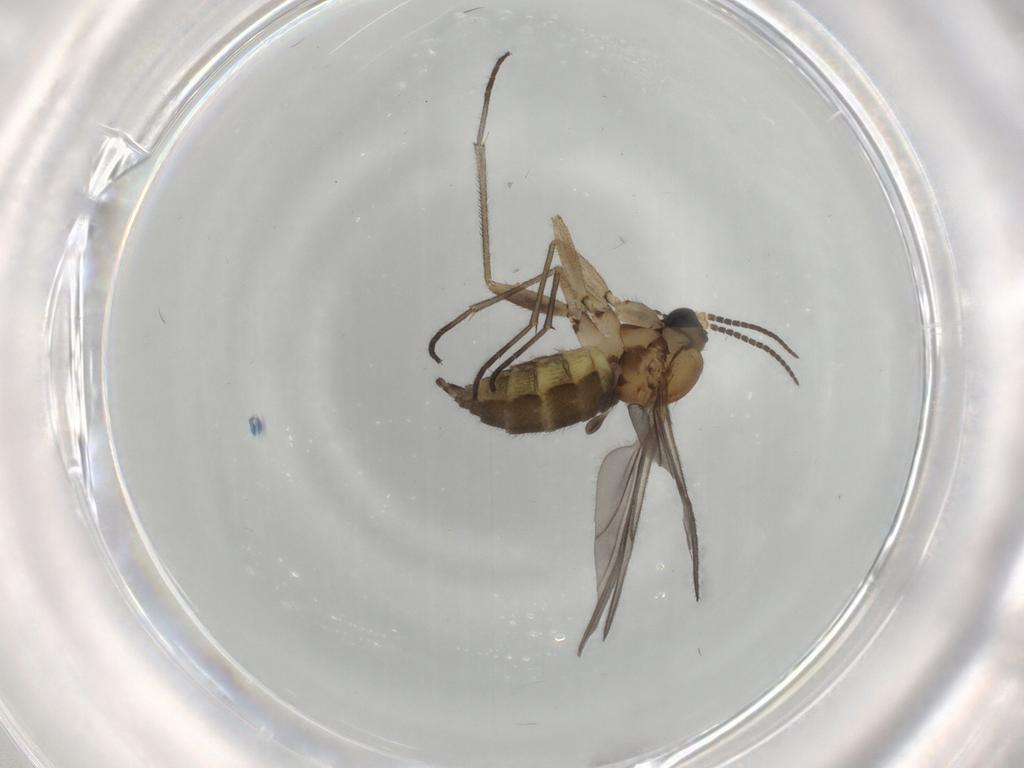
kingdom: Animalia
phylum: Arthropoda
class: Insecta
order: Diptera
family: Sciaridae
